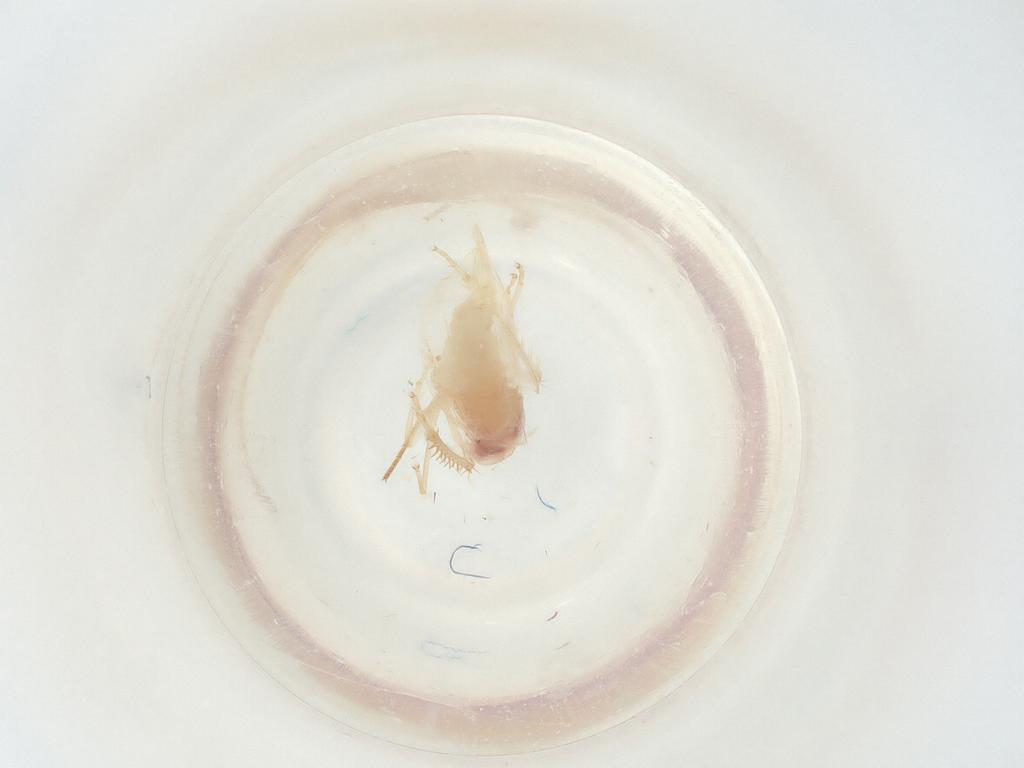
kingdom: Animalia
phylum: Arthropoda
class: Insecta
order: Hemiptera
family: Cicadellidae
